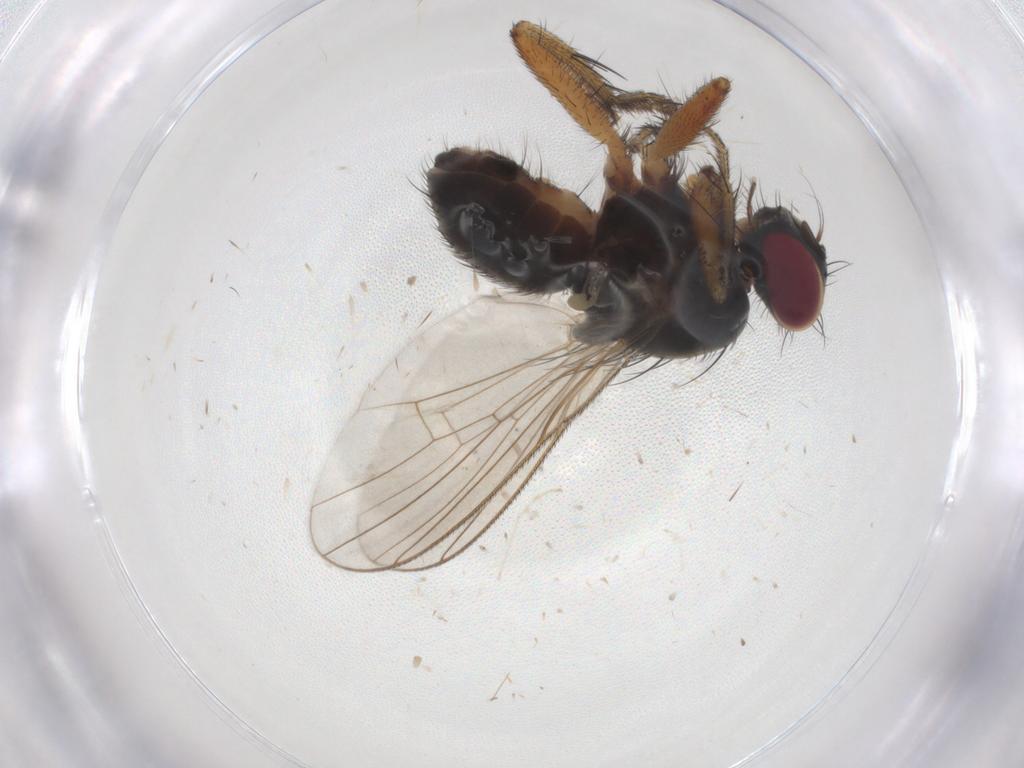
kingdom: Animalia
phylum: Arthropoda
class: Insecta
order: Diptera
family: Muscidae
